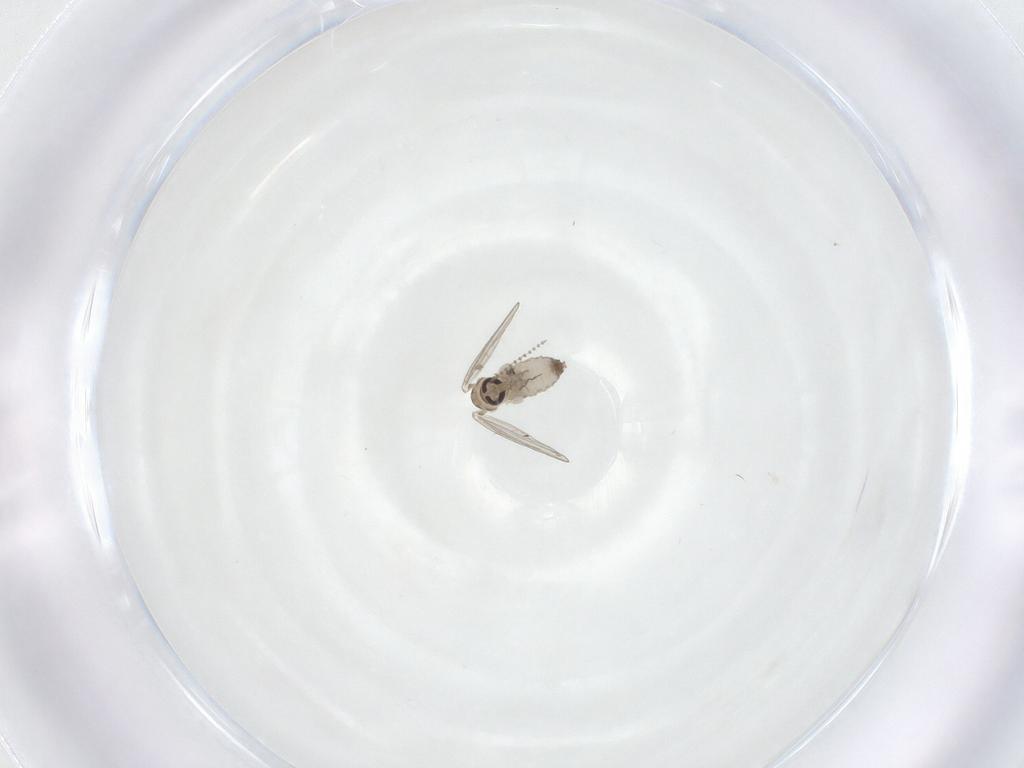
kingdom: Animalia
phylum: Arthropoda
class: Insecta
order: Diptera
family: Psychodidae
